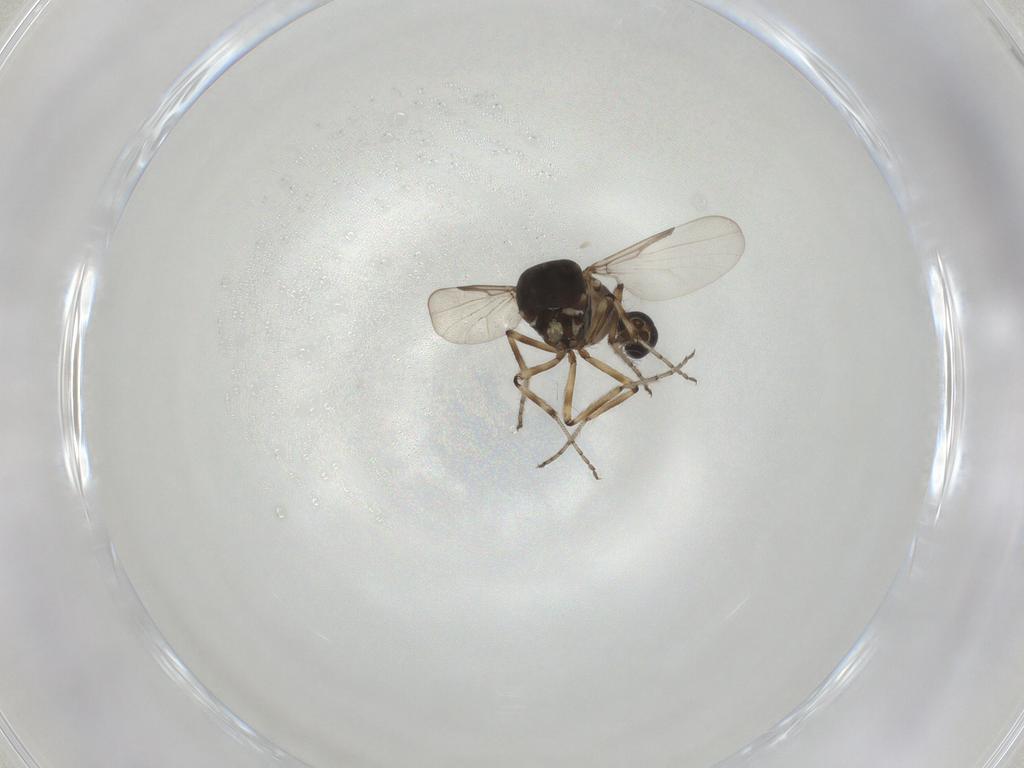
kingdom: Animalia
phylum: Arthropoda
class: Insecta
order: Diptera
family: Ceratopogonidae
